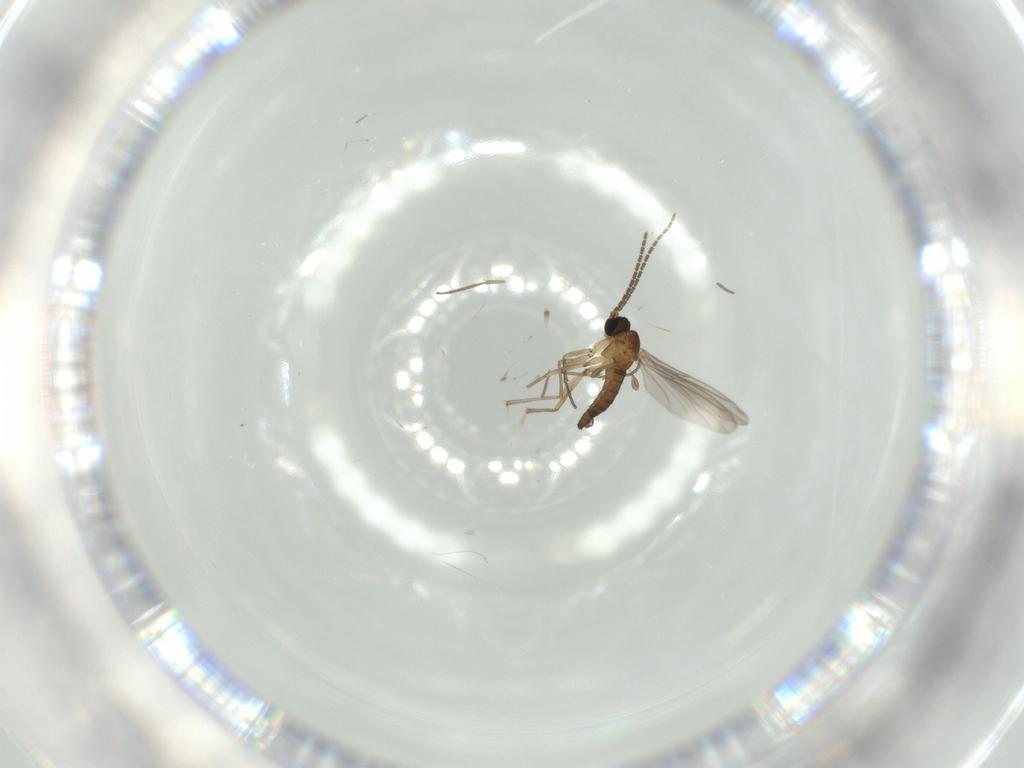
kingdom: Animalia
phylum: Arthropoda
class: Insecta
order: Diptera
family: Sciaridae
